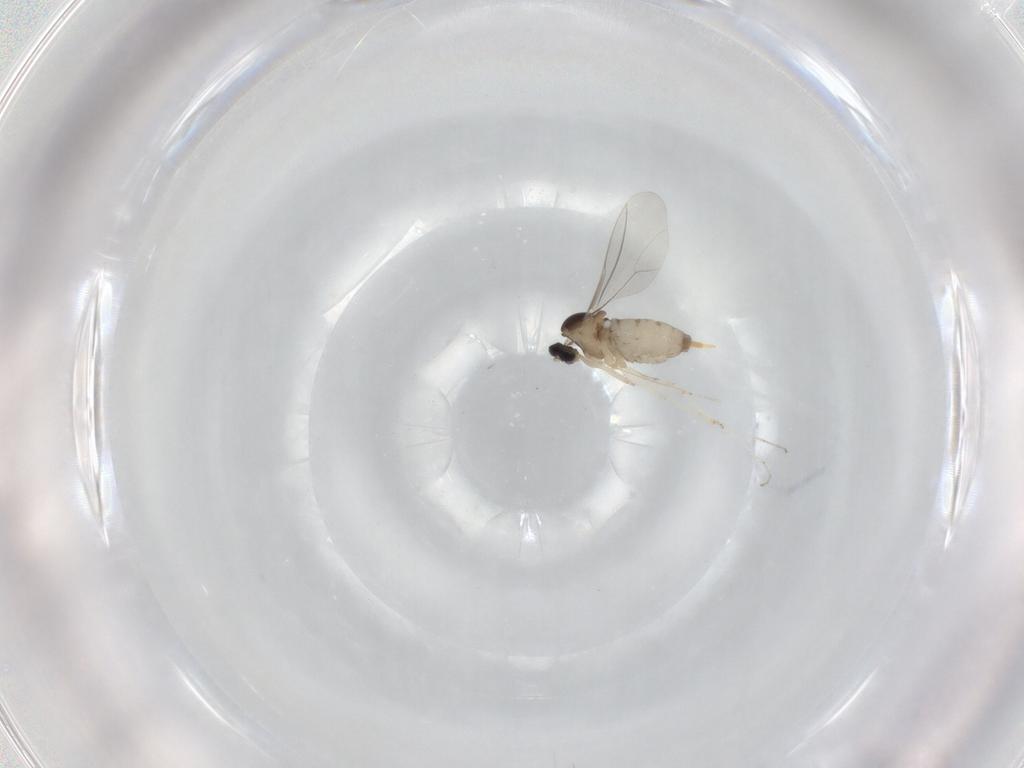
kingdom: Animalia
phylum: Arthropoda
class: Insecta
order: Diptera
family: Cecidomyiidae
